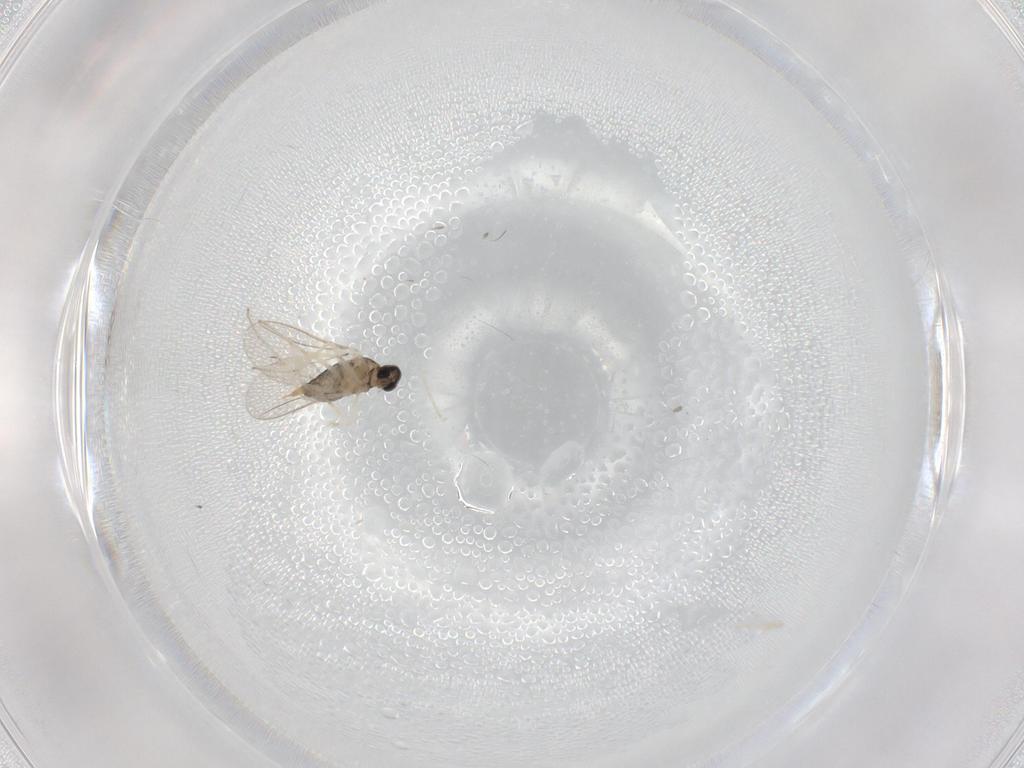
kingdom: Animalia
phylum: Arthropoda
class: Insecta
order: Diptera
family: Cecidomyiidae
